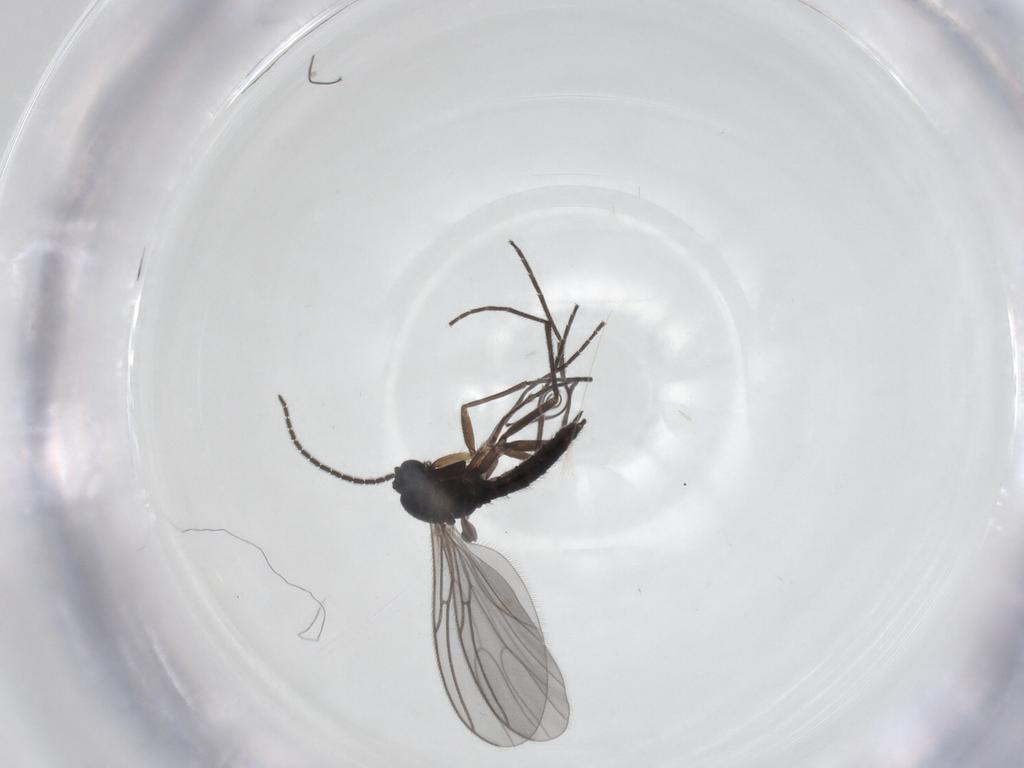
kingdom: Animalia
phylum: Arthropoda
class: Insecta
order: Diptera
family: Sciaridae
